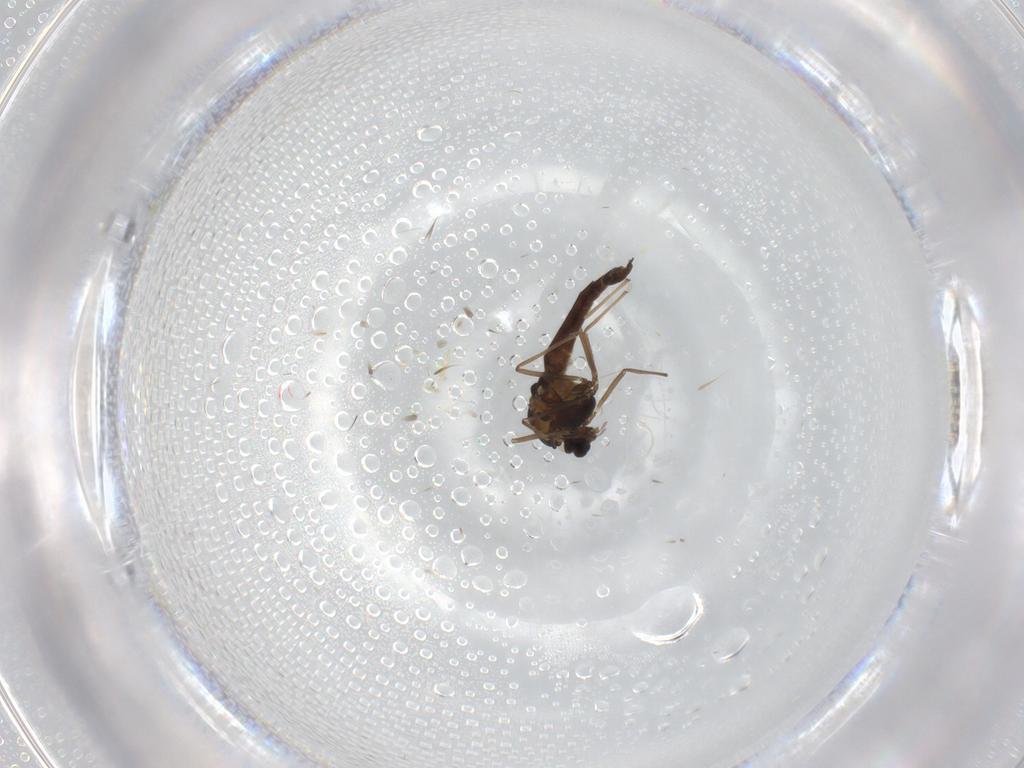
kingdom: Animalia
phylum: Arthropoda
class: Insecta
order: Diptera
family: Chironomidae
